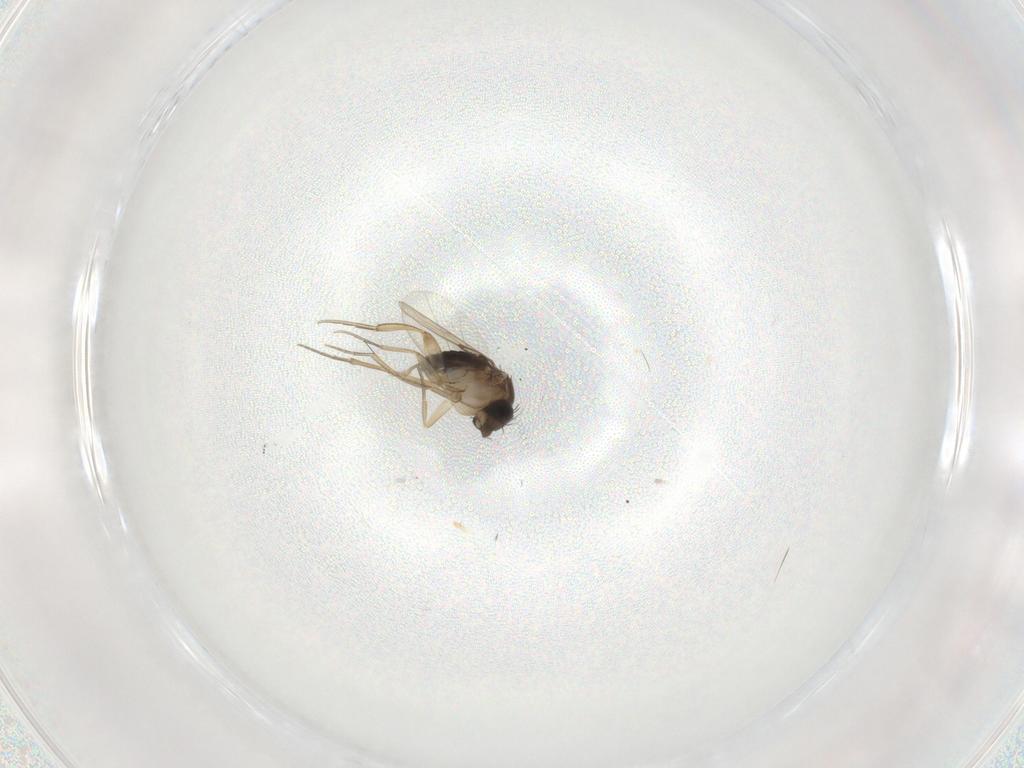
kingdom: Animalia
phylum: Arthropoda
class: Insecta
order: Diptera
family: Phoridae
